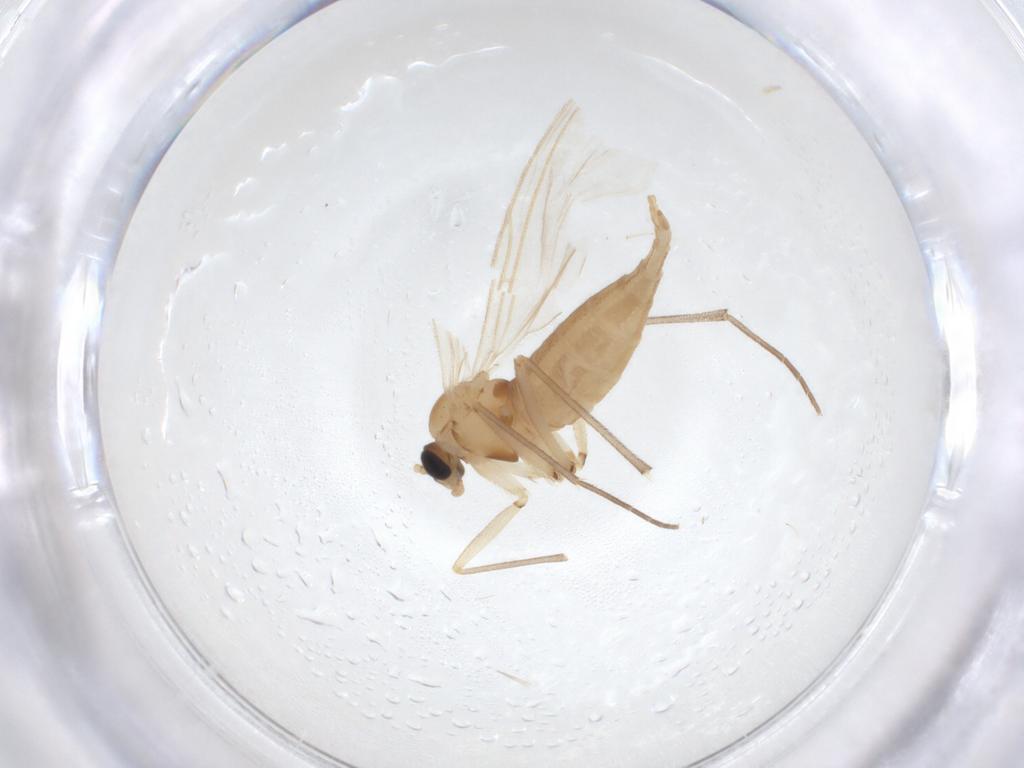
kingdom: Animalia
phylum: Arthropoda
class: Insecta
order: Diptera
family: Cecidomyiidae
